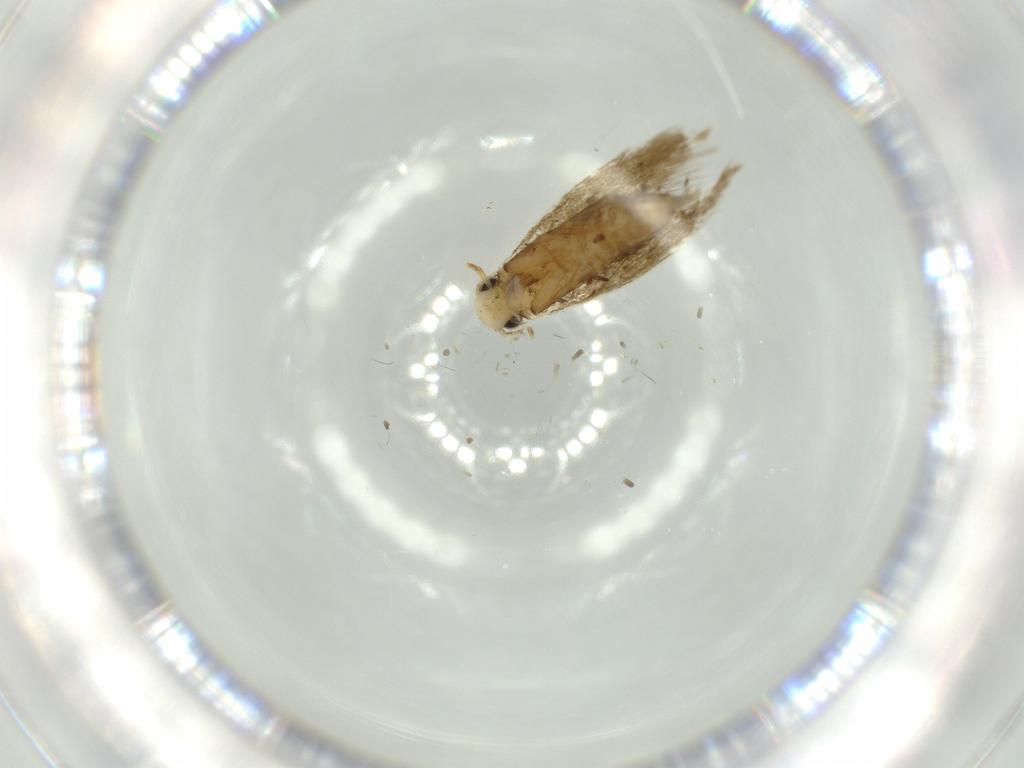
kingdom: Animalia
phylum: Arthropoda
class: Insecta
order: Lepidoptera
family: Tineidae
